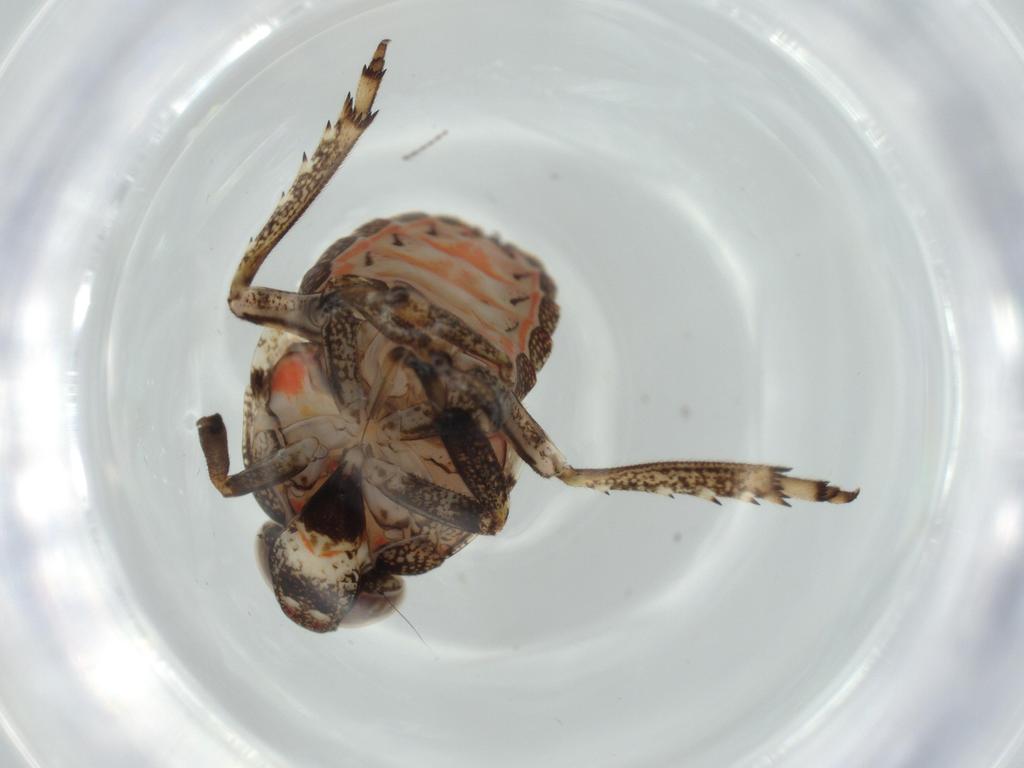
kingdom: Animalia
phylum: Arthropoda
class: Insecta
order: Hemiptera
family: Issidae
